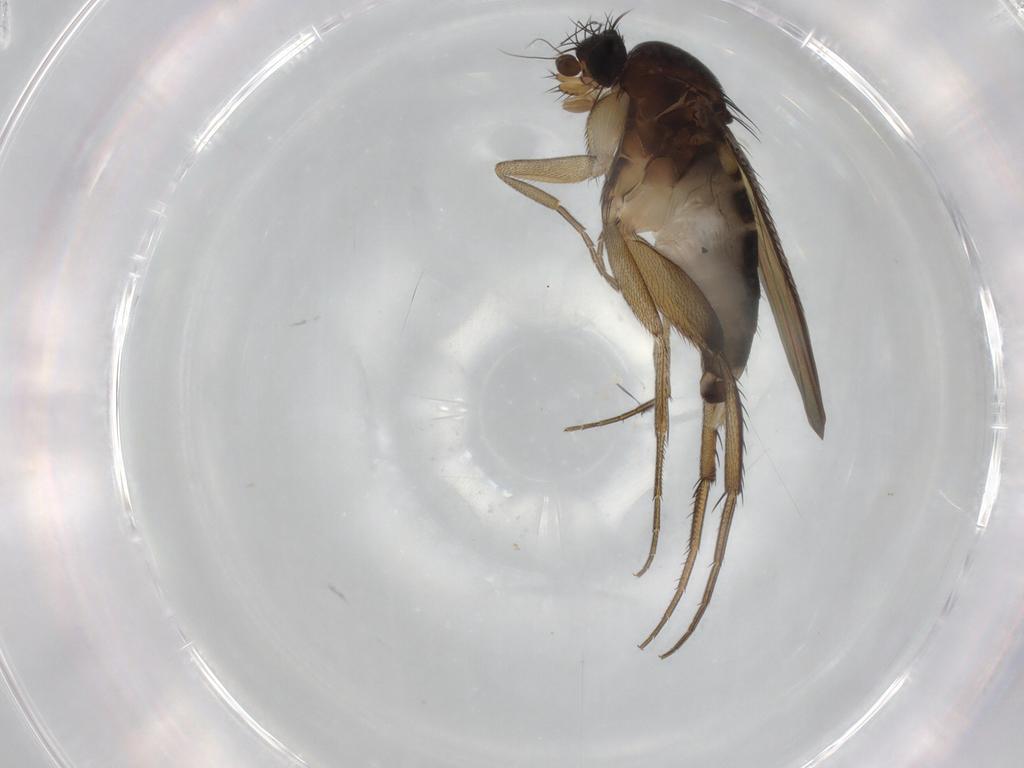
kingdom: Animalia
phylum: Arthropoda
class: Insecta
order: Diptera
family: Phoridae
